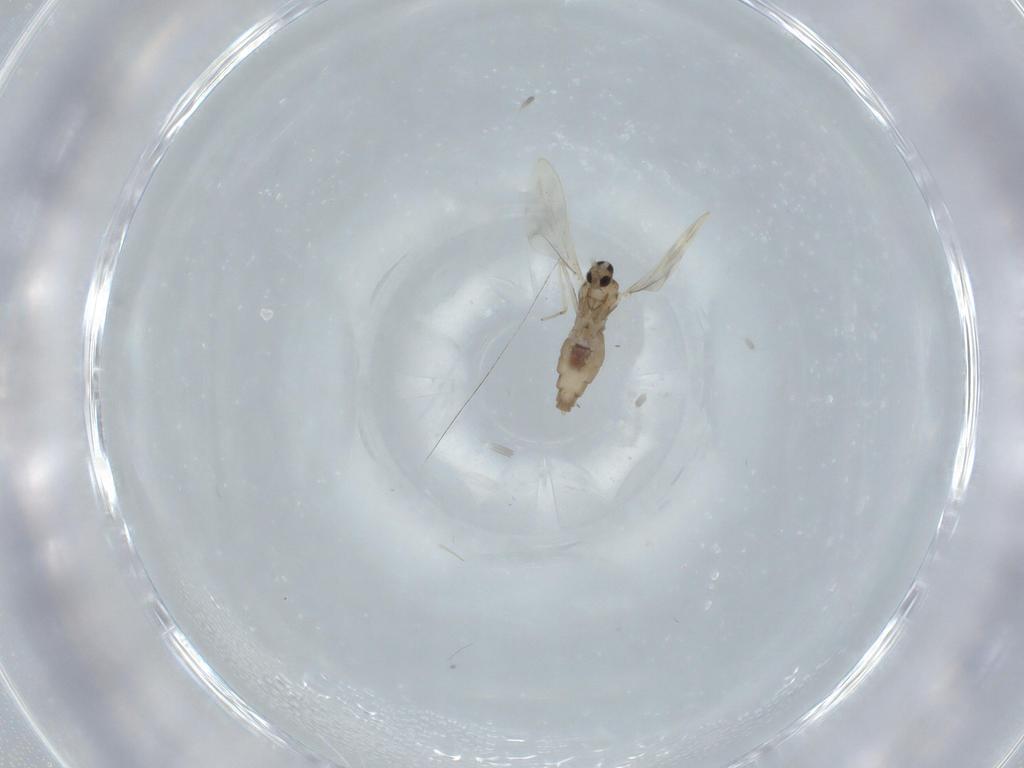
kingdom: Animalia
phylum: Arthropoda
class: Insecta
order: Diptera
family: Cecidomyiidae
